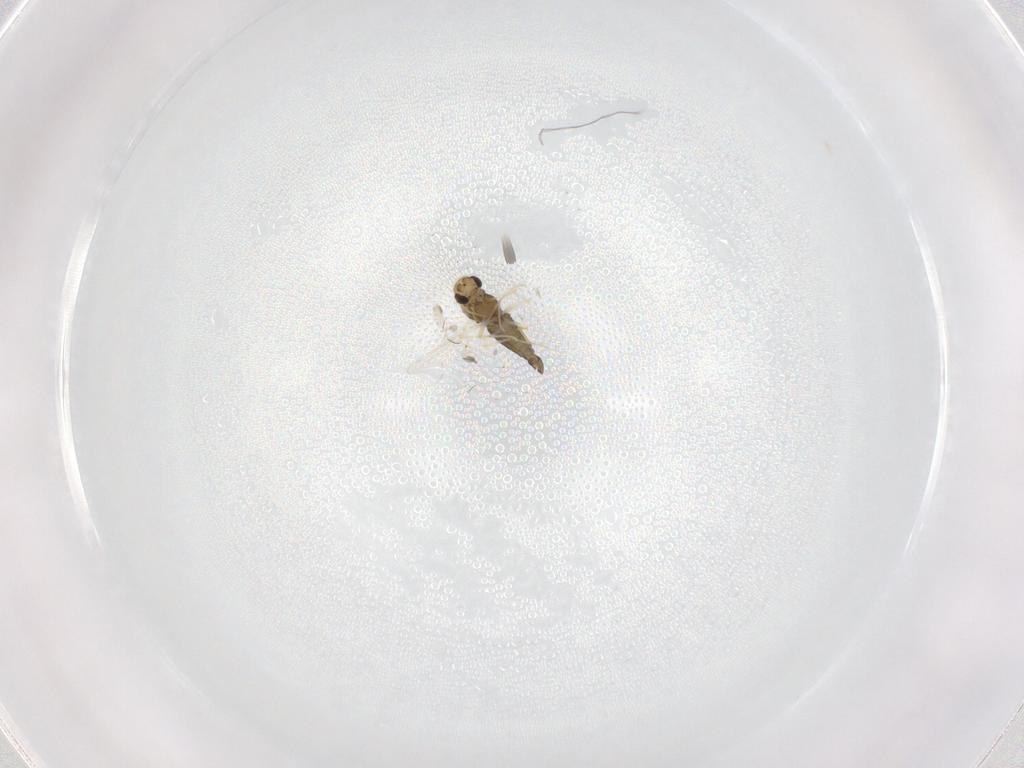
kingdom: Animalia
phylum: Arthropoda
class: Insecta
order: Diptera
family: Chironomidae
